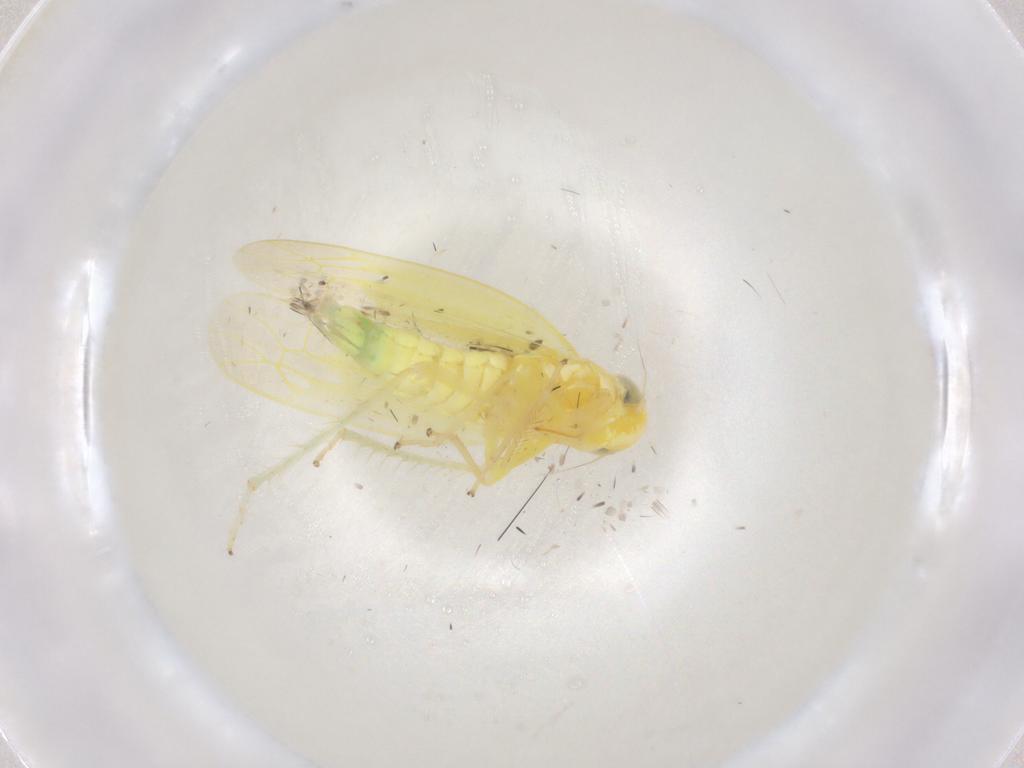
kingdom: Animalia
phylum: Arthropoda
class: Insecta
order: Hemiptera
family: Cicadellidae
